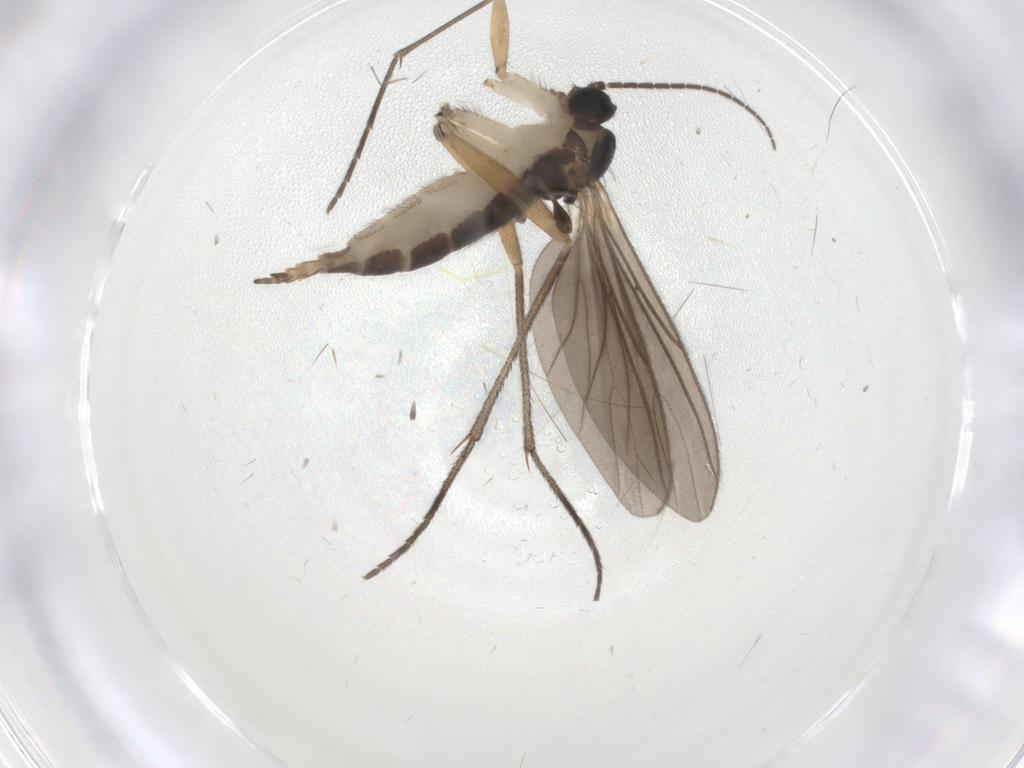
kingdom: Animalia
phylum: Arthropoda
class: Insecta
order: Diptera
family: Sciaridae
